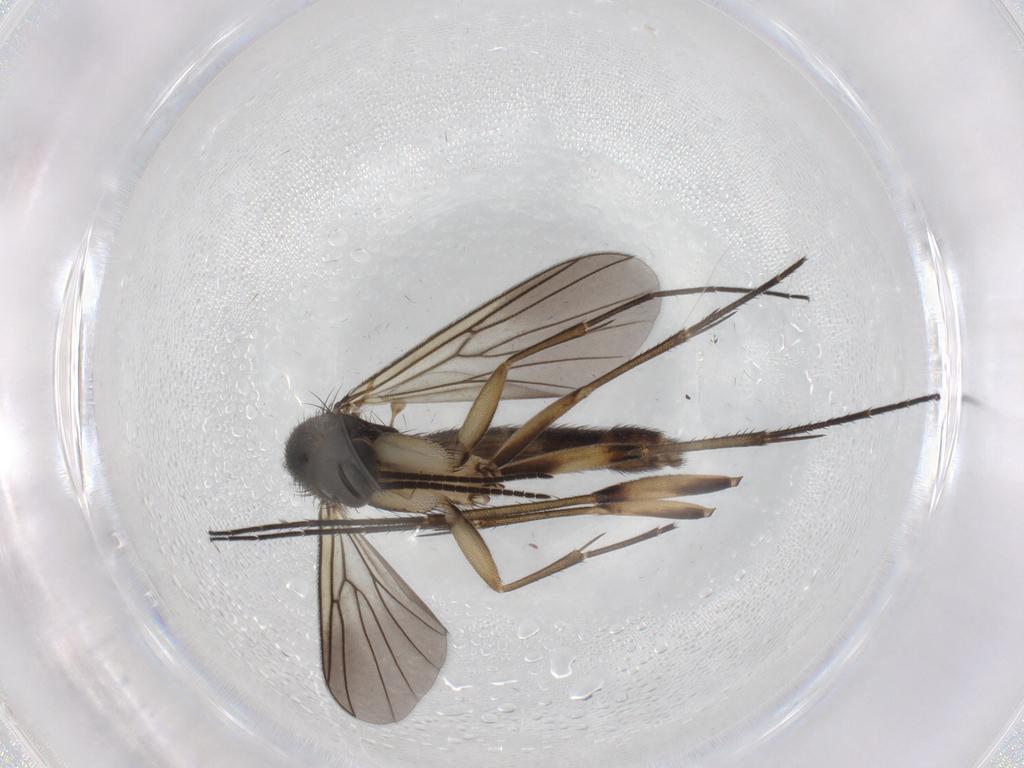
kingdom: Animalia
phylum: Arthropoda
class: Insecta
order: Diptera
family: Mycetophilidae
